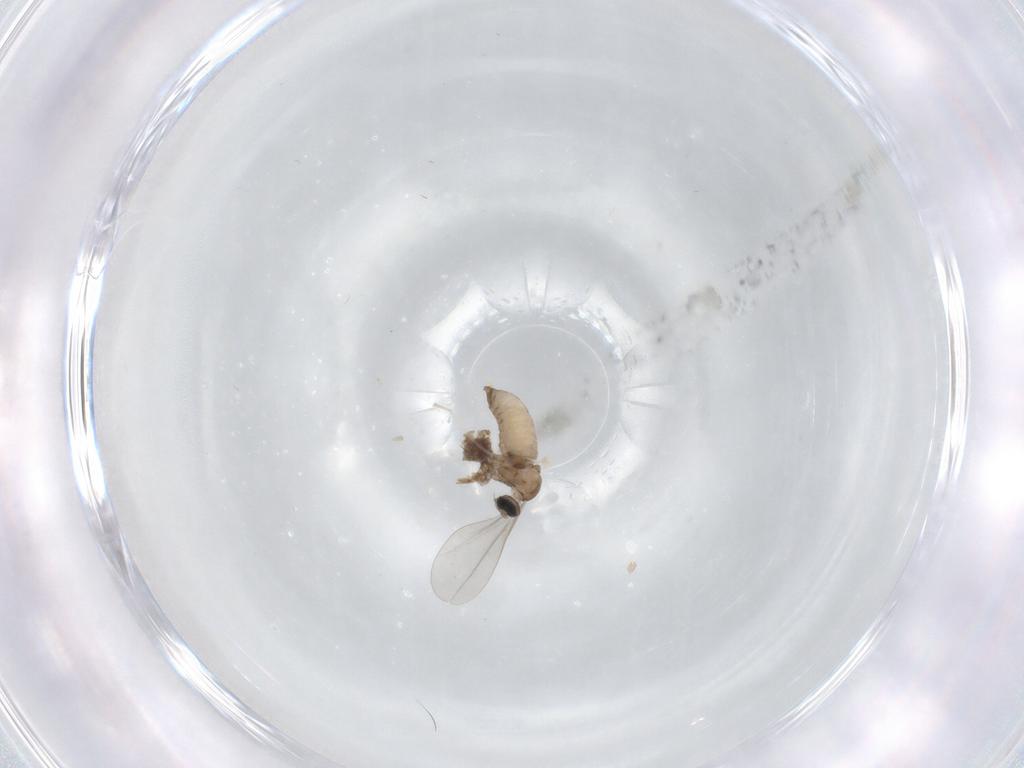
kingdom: Animalia
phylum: Arthropoda
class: Insecta
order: Diptera
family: Cecidomyiidae
